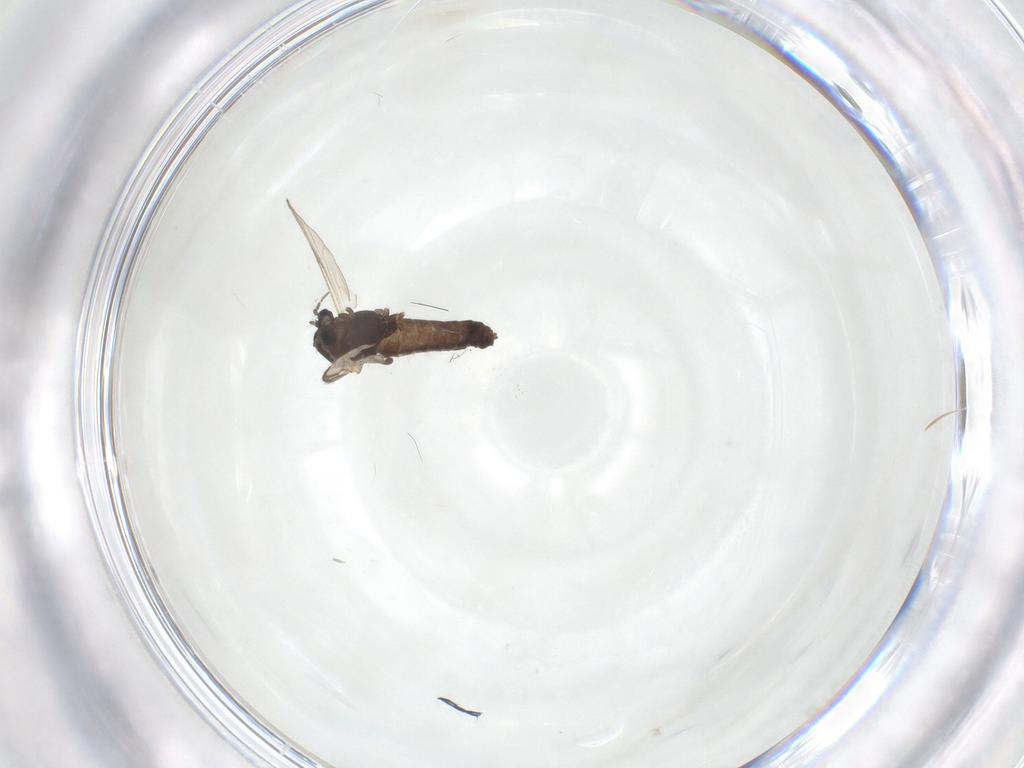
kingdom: Animalia
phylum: Arthropoda
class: Insecta
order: Diptera
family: Chironomidae
